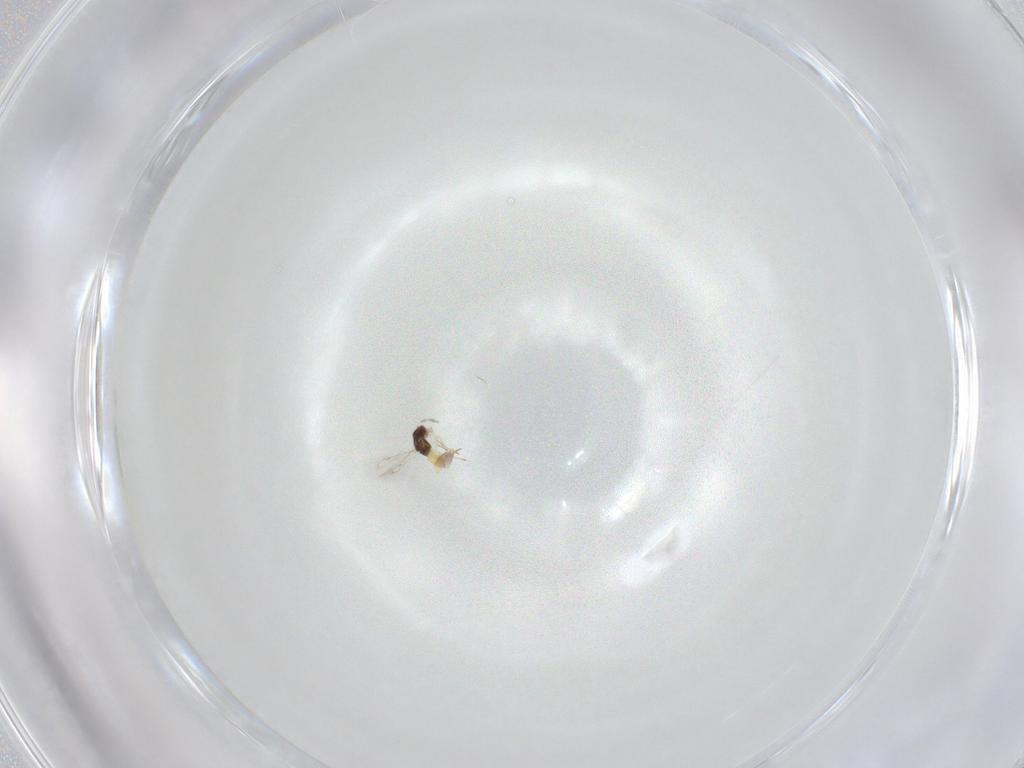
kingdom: Animalia
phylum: Arthropoda
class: Insecta
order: Hymenoptera
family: Eulophidae
